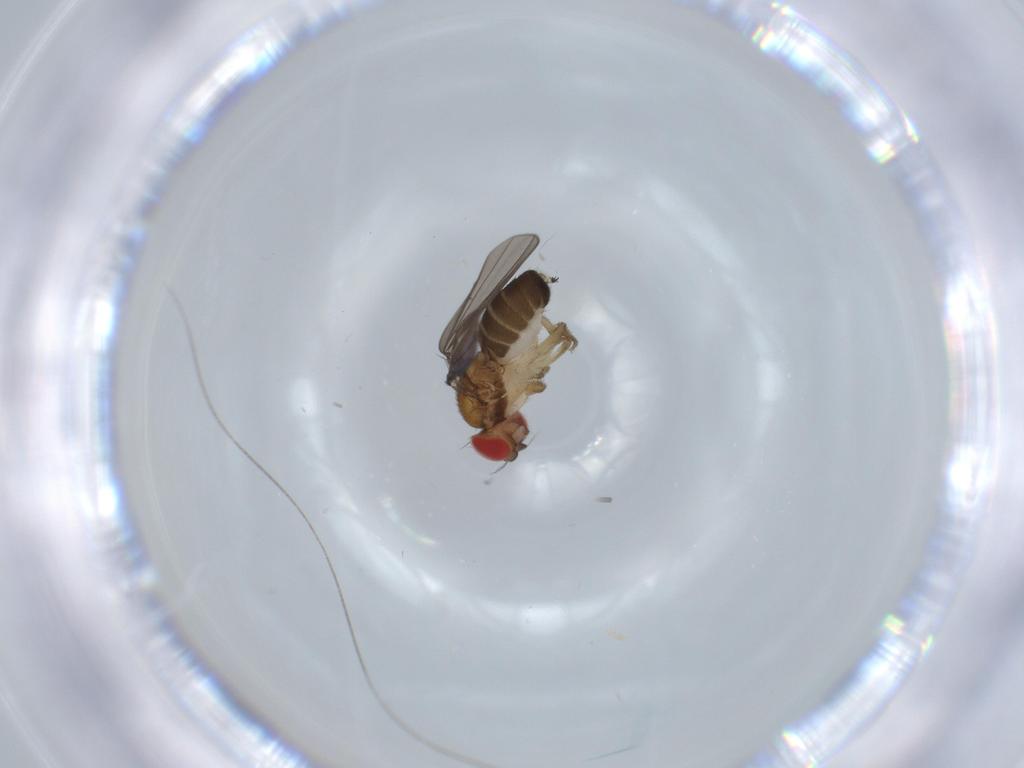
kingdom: Animalia
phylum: Arthropoda
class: Insecta
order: Diptera
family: Drosophilidae
